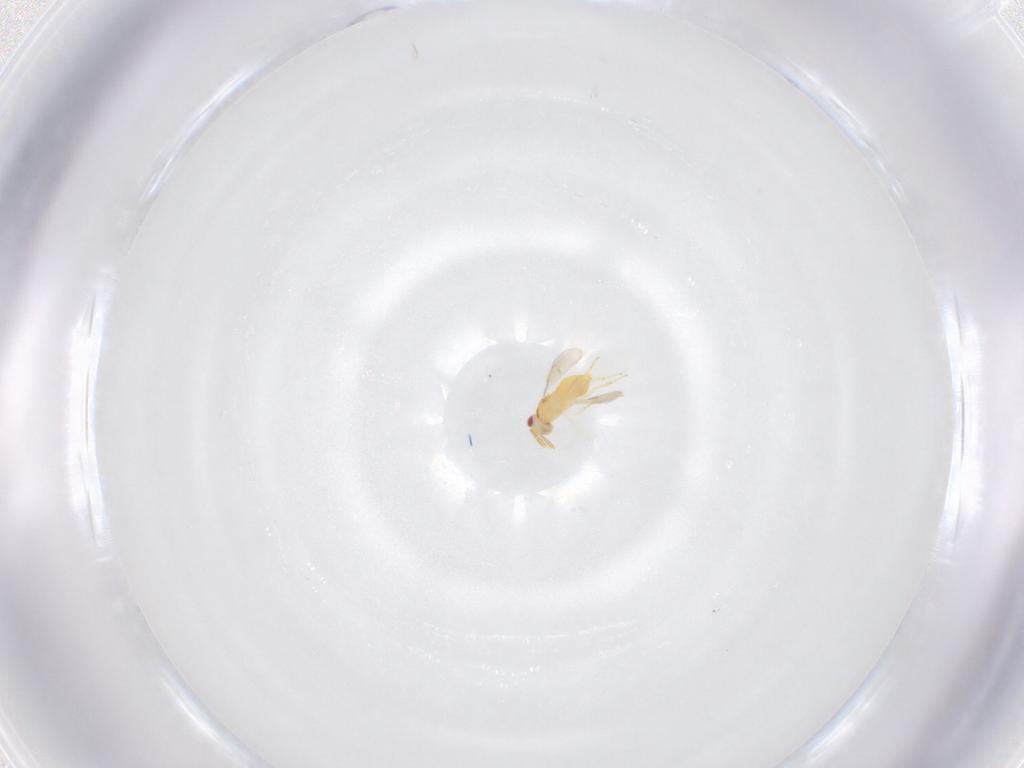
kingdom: Animalia
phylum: Arthropoda
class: Insecta
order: Hymenoptera
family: Aphelinidae
